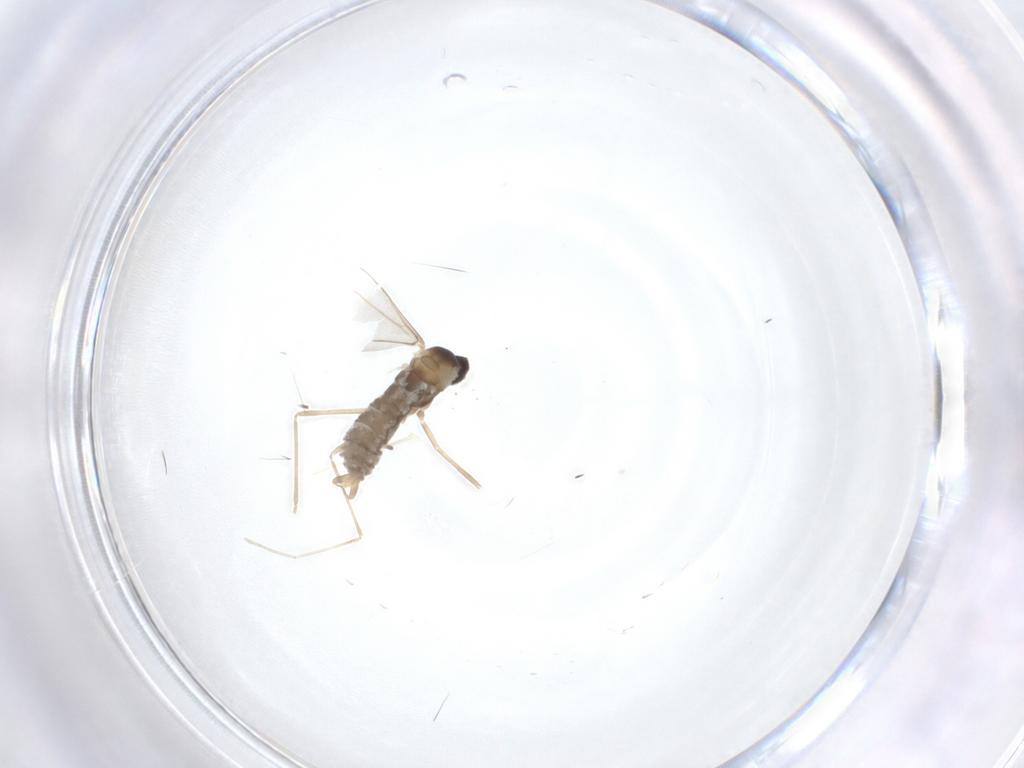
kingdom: Animalia
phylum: Arthropoda
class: Insecta
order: Diptera
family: Cecidomyiidae
